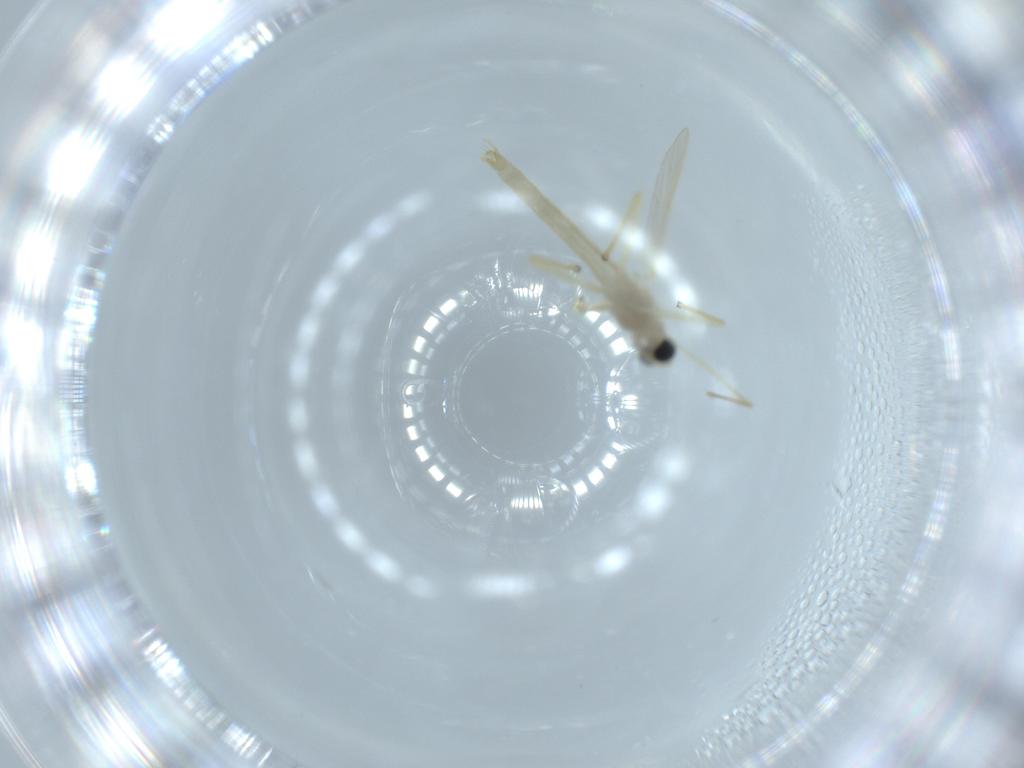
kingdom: Animalia
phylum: Arthropoda
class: Insecta
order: Diptera
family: Chironomidae
